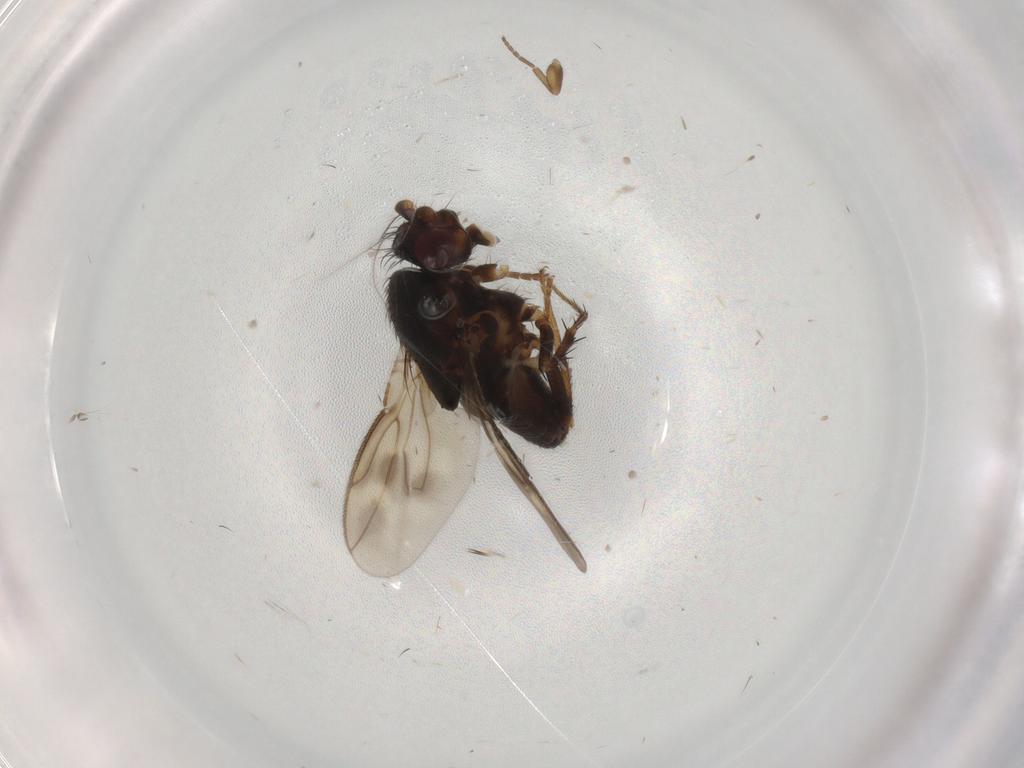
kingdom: Animalia
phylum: Arthropoda
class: Insecta
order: Diptera
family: Sphaeroceridae
